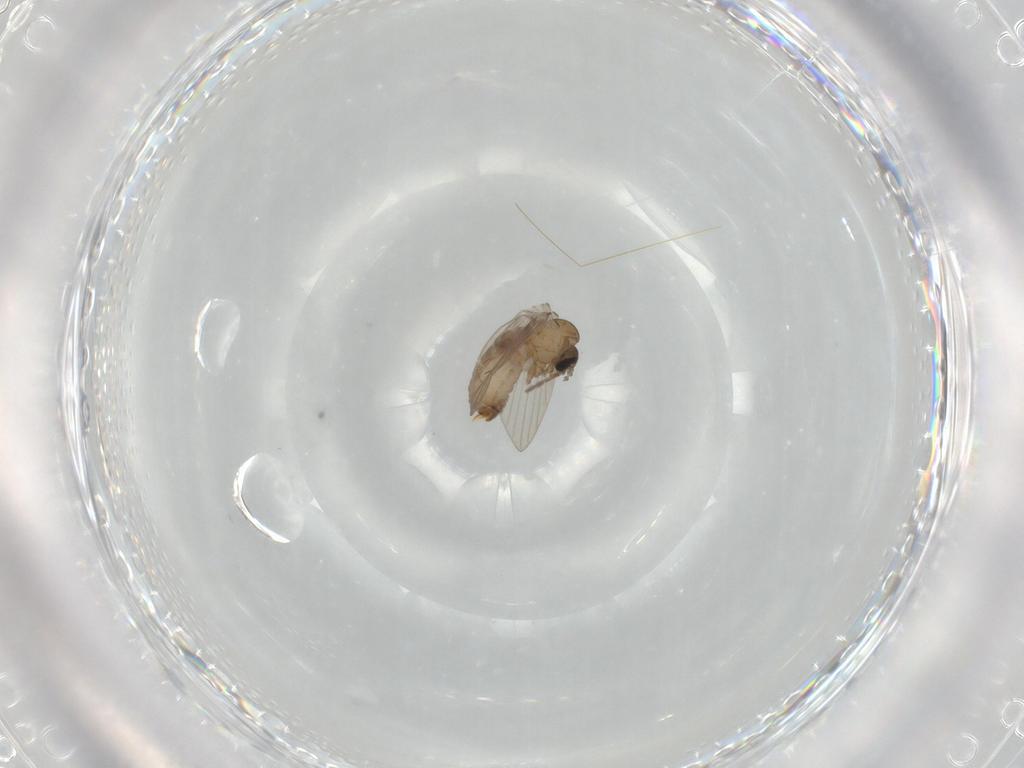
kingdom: Animalia
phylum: Arthropoda
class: Insecta
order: Diptera
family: Psychodidae
